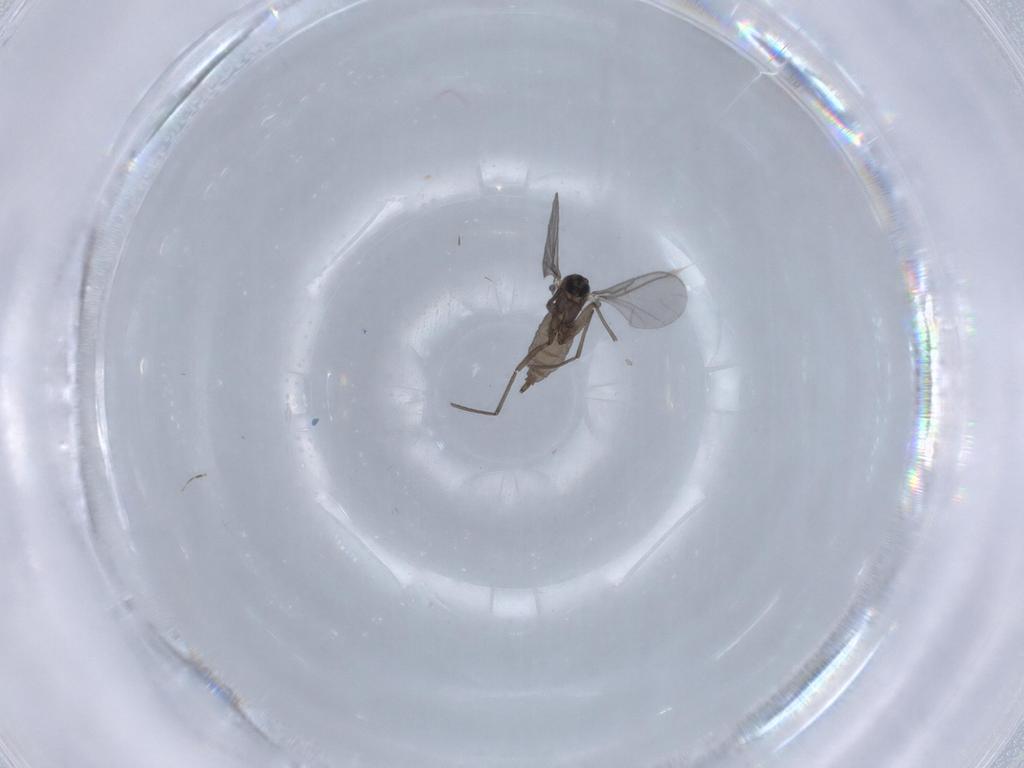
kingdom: Animalia
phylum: Arthropoda
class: Insecta
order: Diptera
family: Sciaridae
